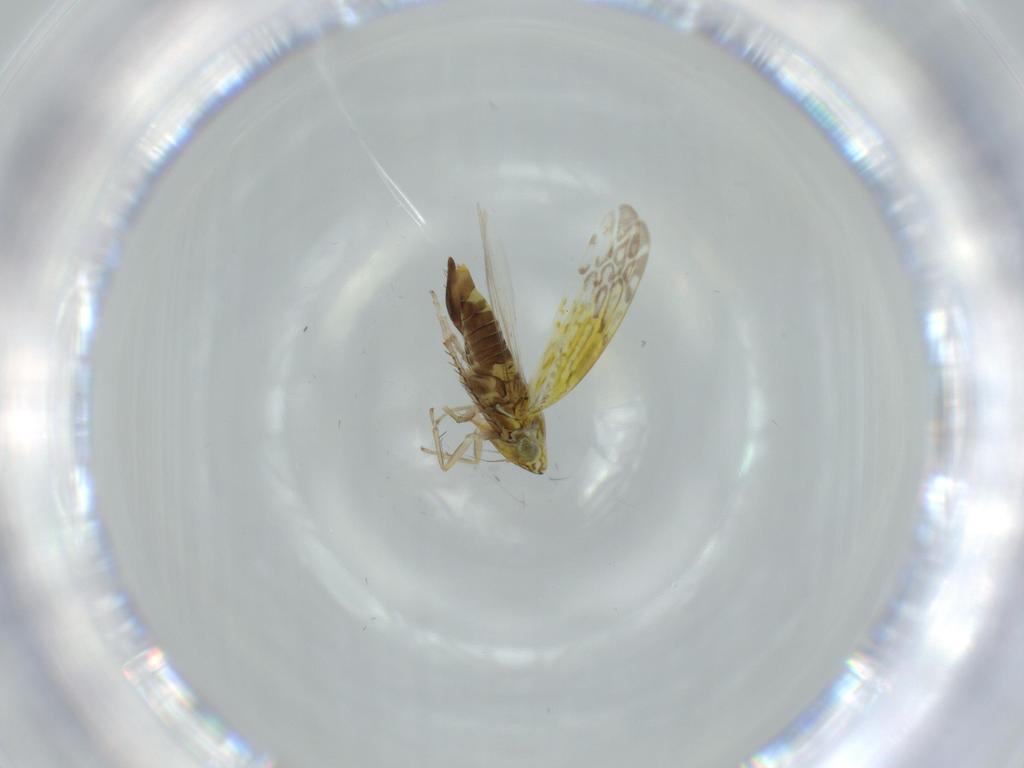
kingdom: Animalia
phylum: Arthropoda
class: Insecta
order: Hemiptera
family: Cicadellidae
